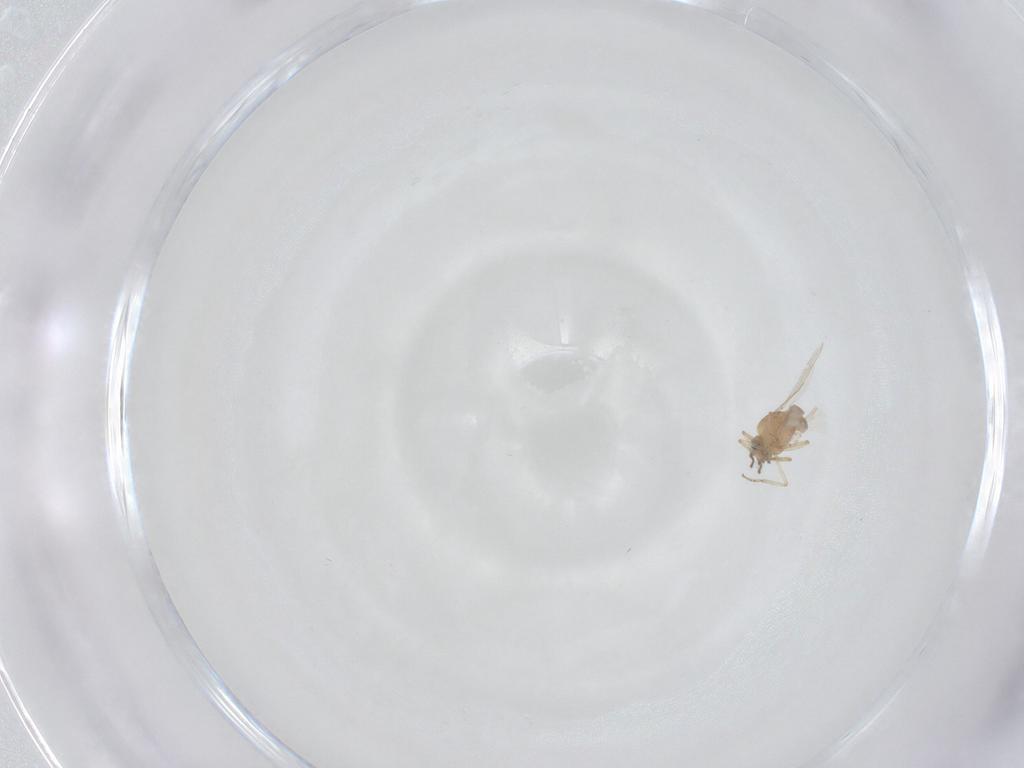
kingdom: Animalia
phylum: Arthropoda
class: Insecta
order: Diptera
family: Ceratopogonidae
